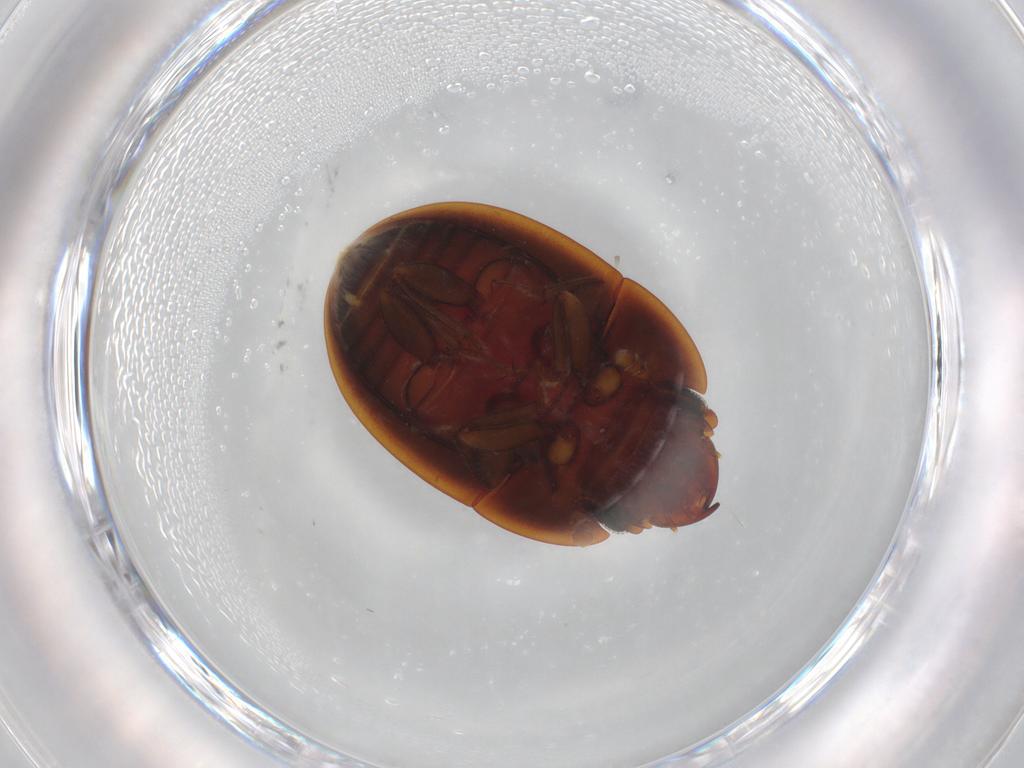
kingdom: Animalia
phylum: Arthropoda
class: Insecta
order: Coleoptera
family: Nitidulidae
